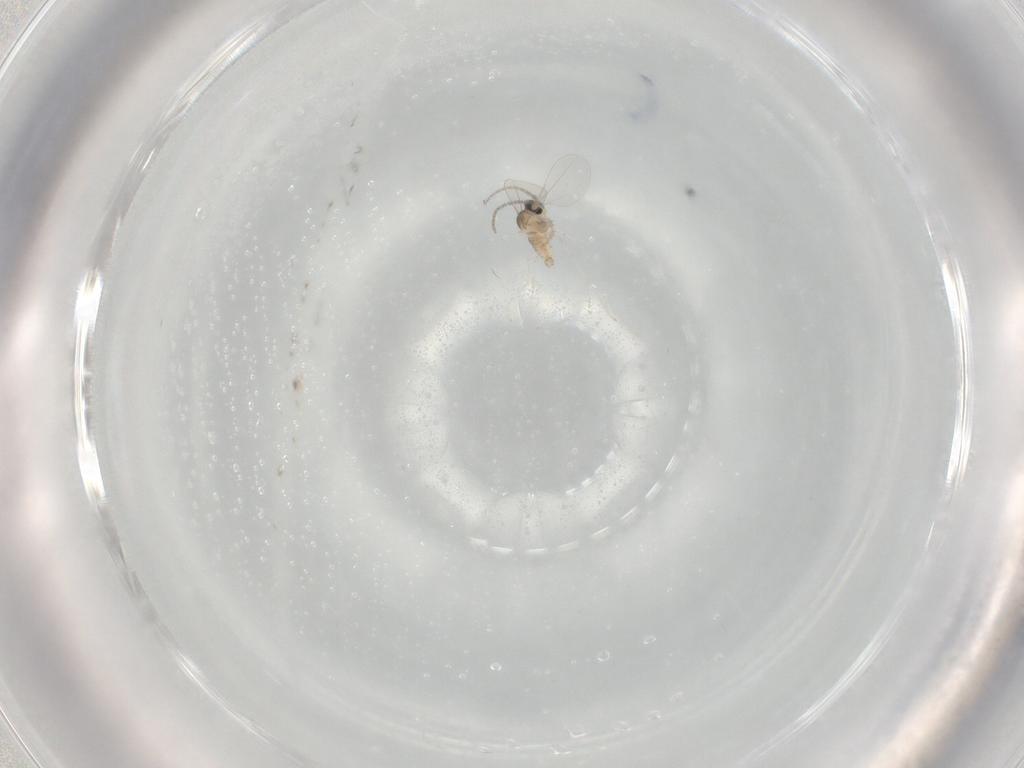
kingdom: Animalia
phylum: Arthropoda
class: Insecta
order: Diptera
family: Cecidomyiidae
